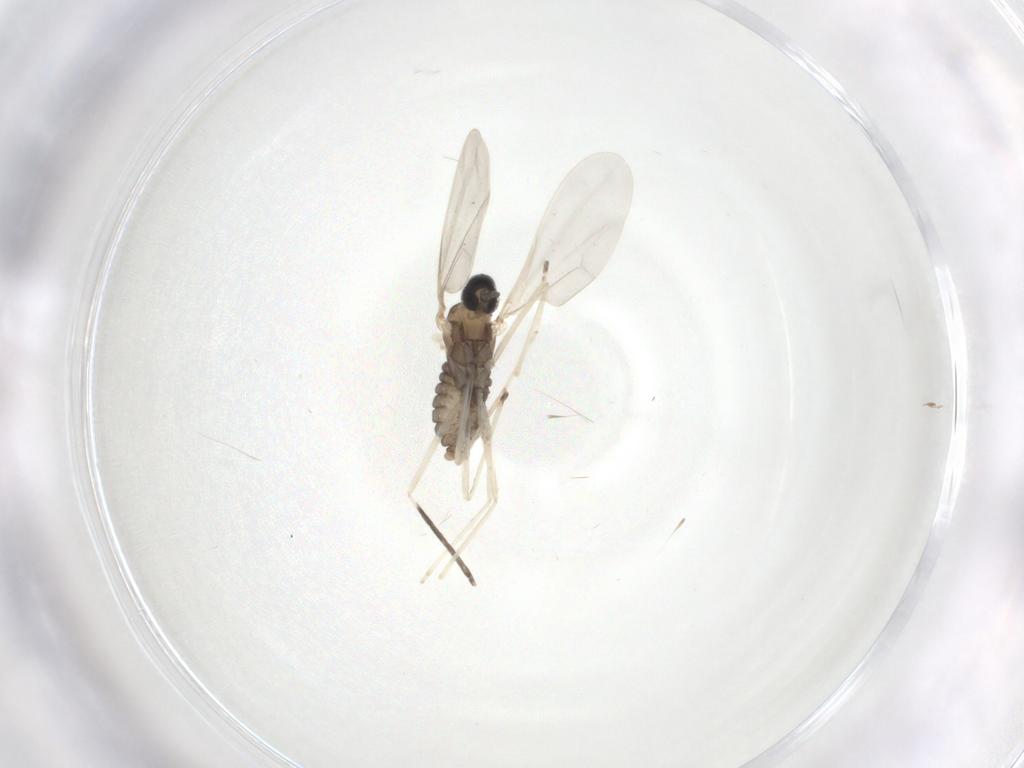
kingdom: Animalia
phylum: Arthropoda
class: Insecta
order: Diptera
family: Cecidomyiidae
